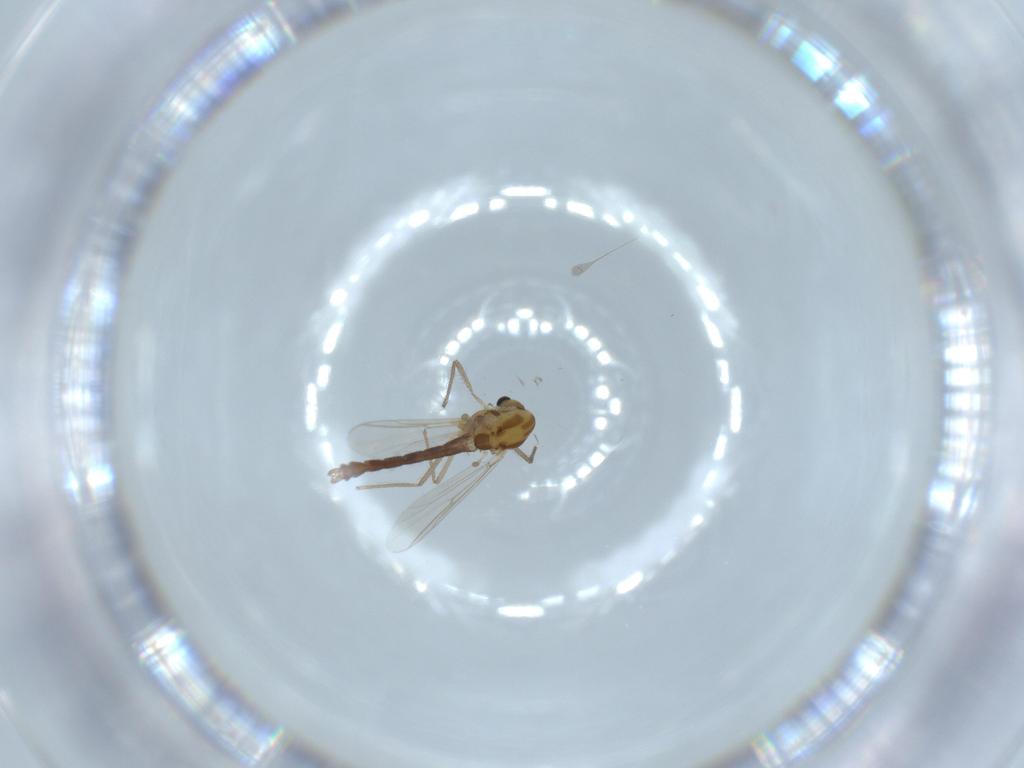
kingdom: Animalia
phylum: Arthropoda
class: Insecta
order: Diptera
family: Chironomidae
